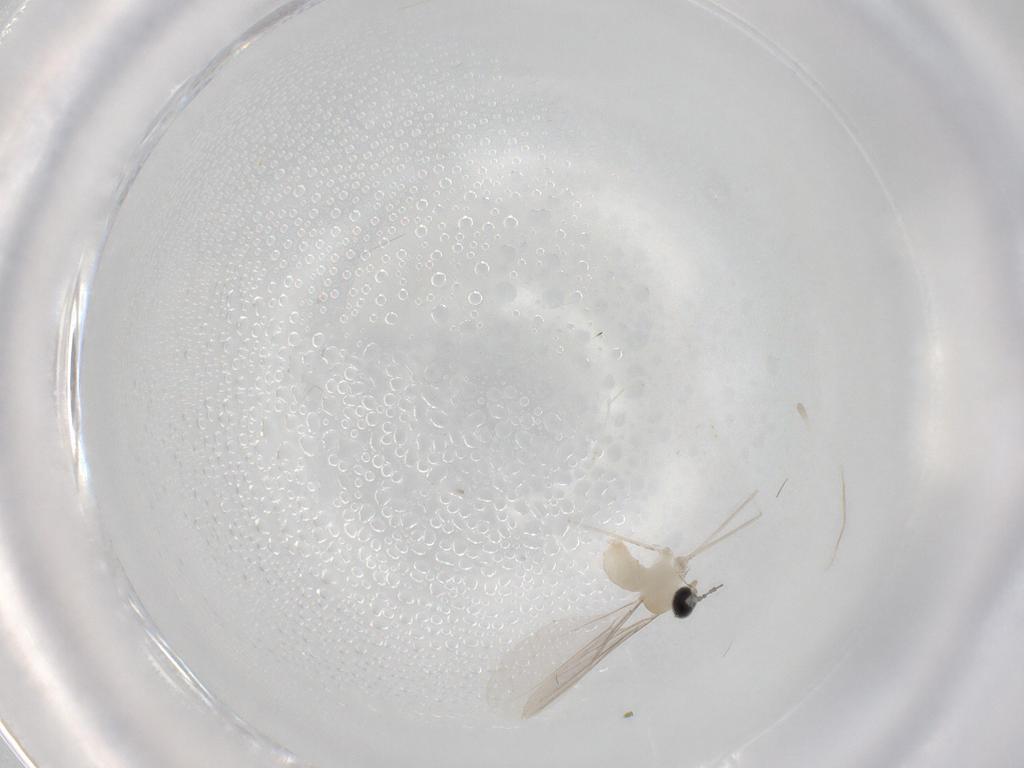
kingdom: Animalia
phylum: Arthropoda
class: Insecta
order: Diptera
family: Cecidomyiidae
